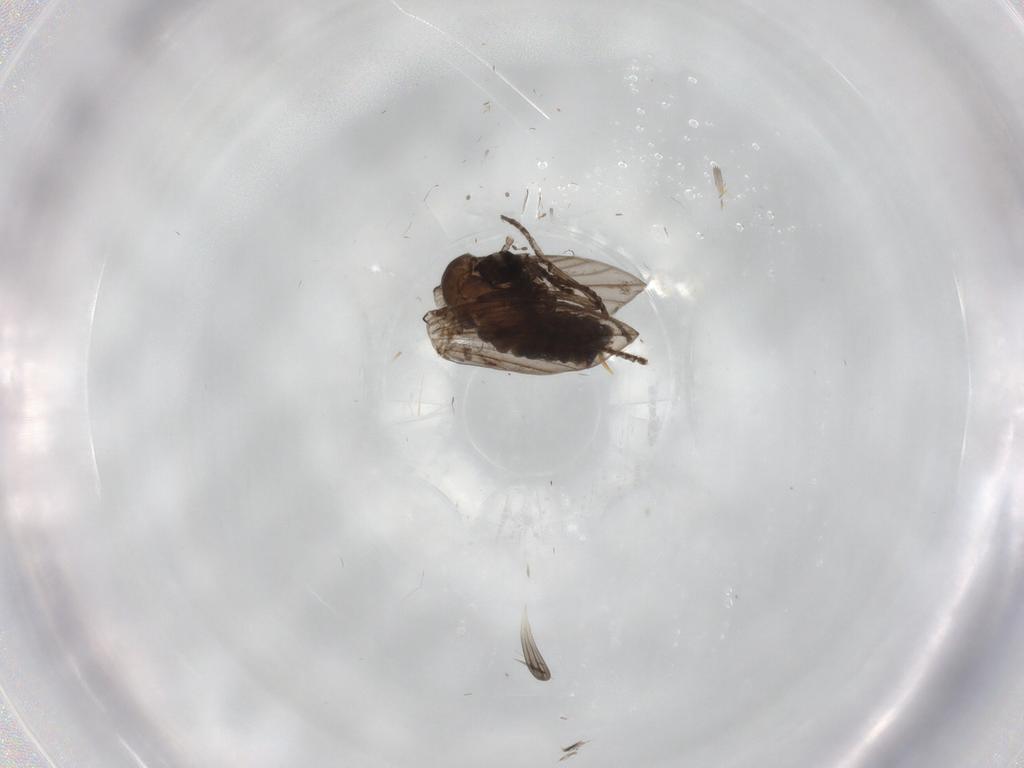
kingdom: Animalia
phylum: Arthropoda
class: Insecta
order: Diptera
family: Psychodidae
